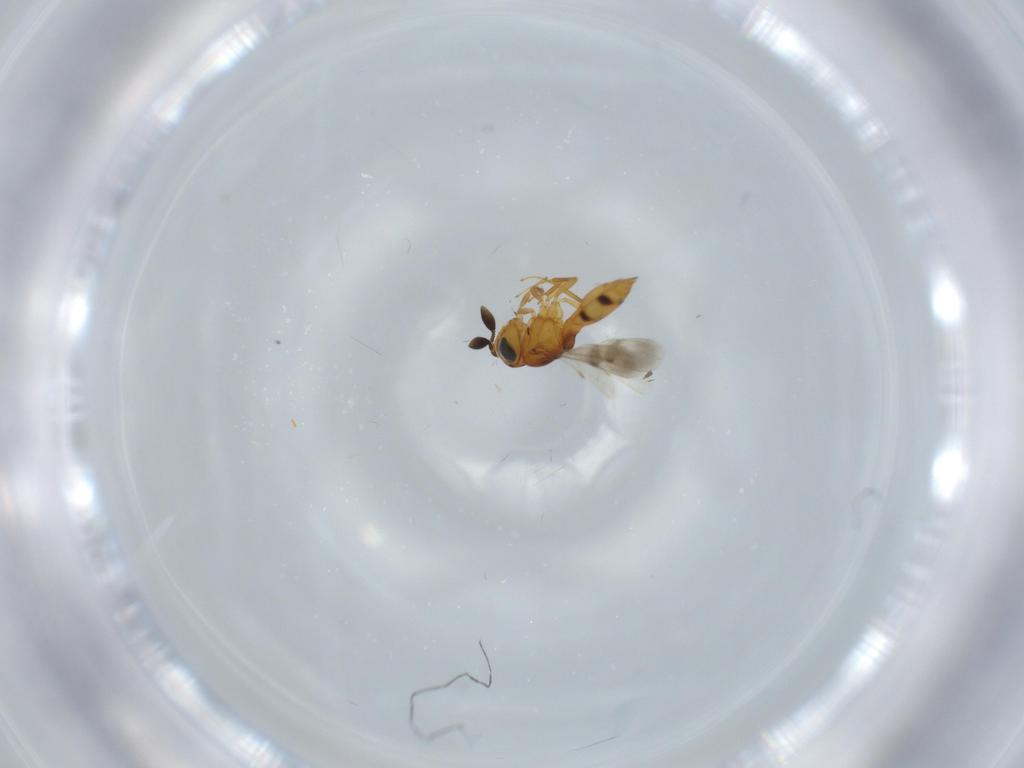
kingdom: Animalia
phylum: Arthropoda
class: Insecta
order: Hymenoptera
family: Scelionidae
